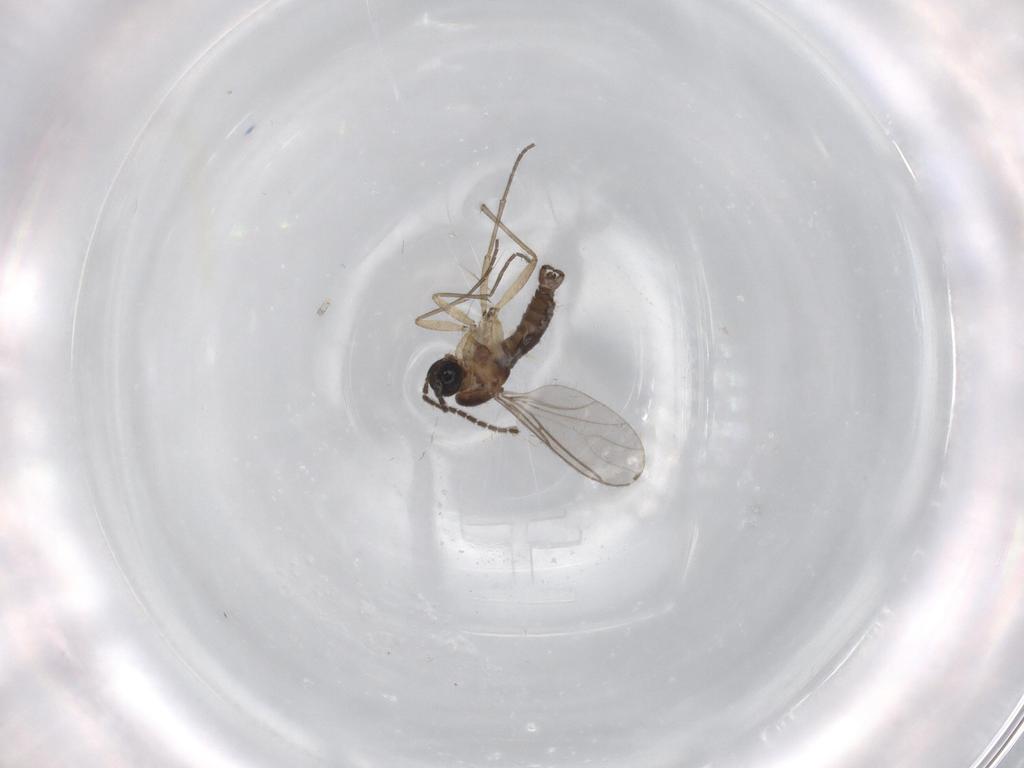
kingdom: Animalia
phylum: Arthropoda
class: Insecta
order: Diptera
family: Sciaridae
